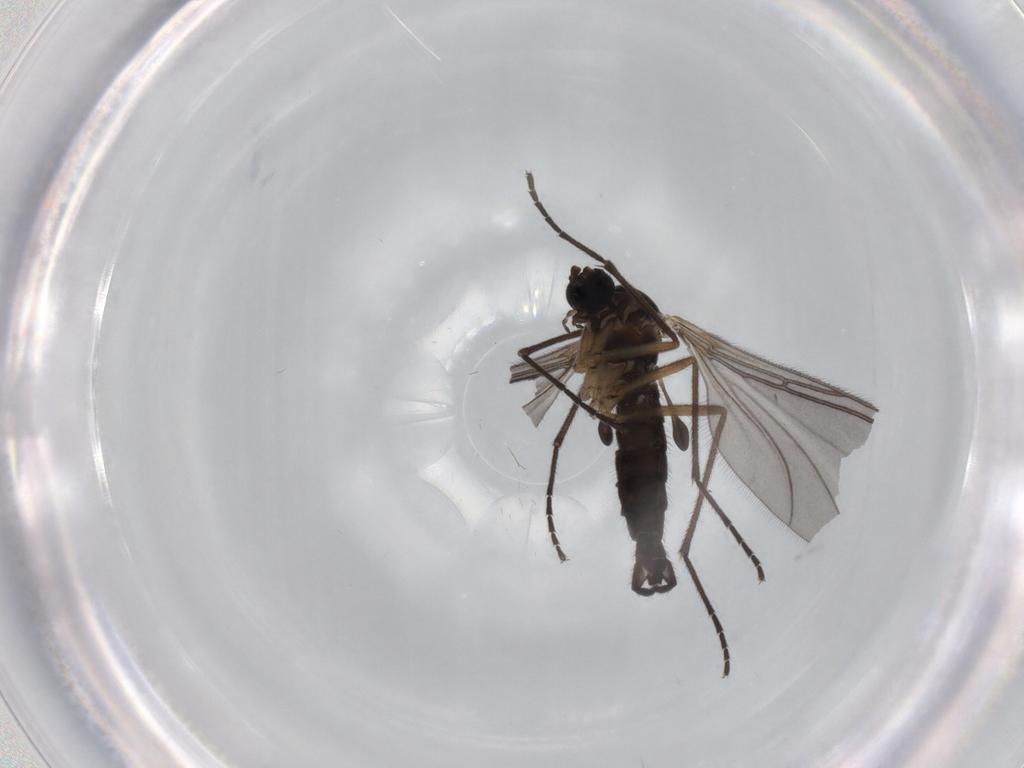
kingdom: Animalia
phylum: Arthropoda
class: Insecta
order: Diptera
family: Sciaridae
